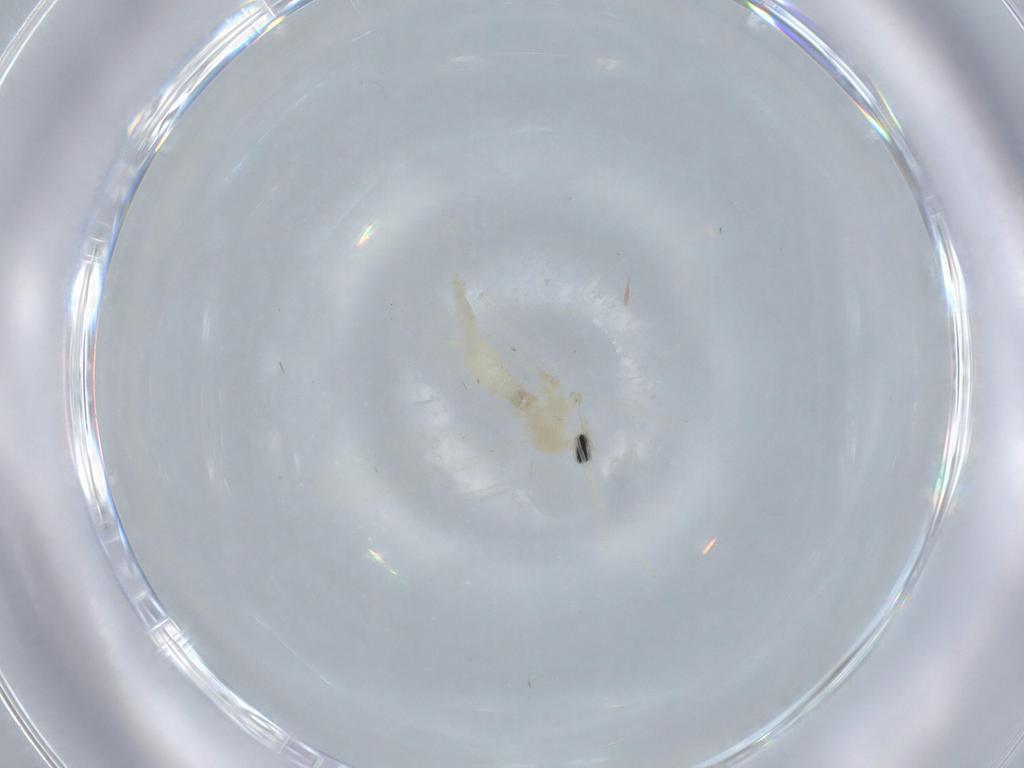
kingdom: Animalia
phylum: Arthropoda
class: Insecta
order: Diptera
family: Cecidomyiidae
